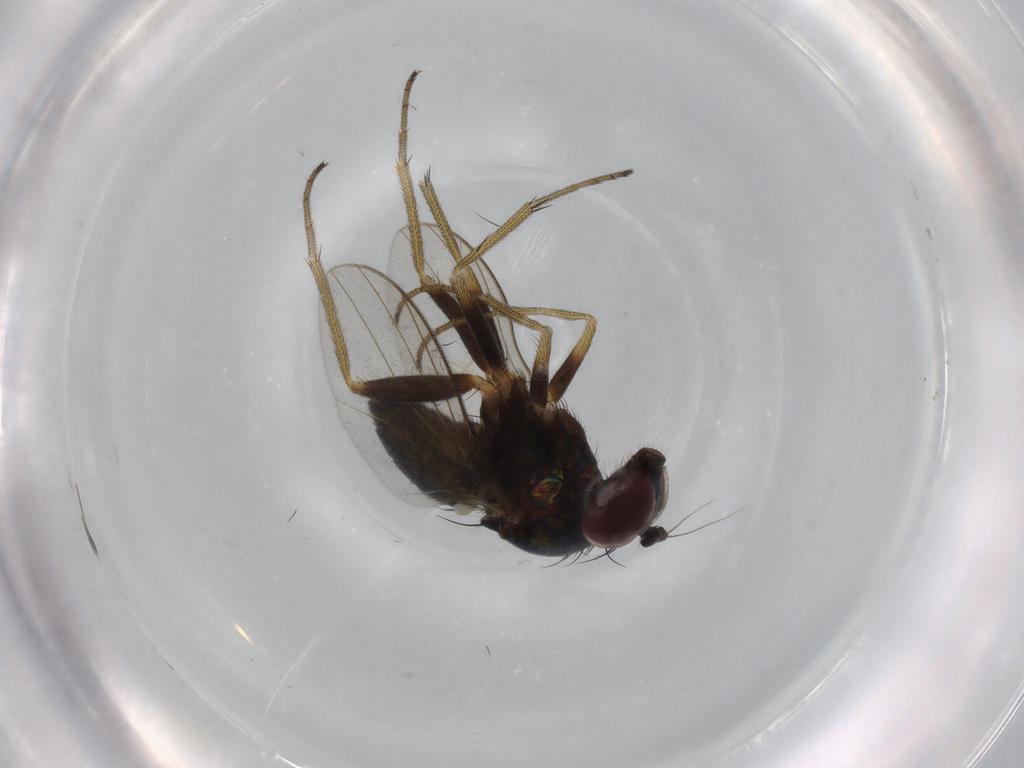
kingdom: Animalia
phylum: Arthropoda
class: Insecta
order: Diptera
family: Dolichopodidae
